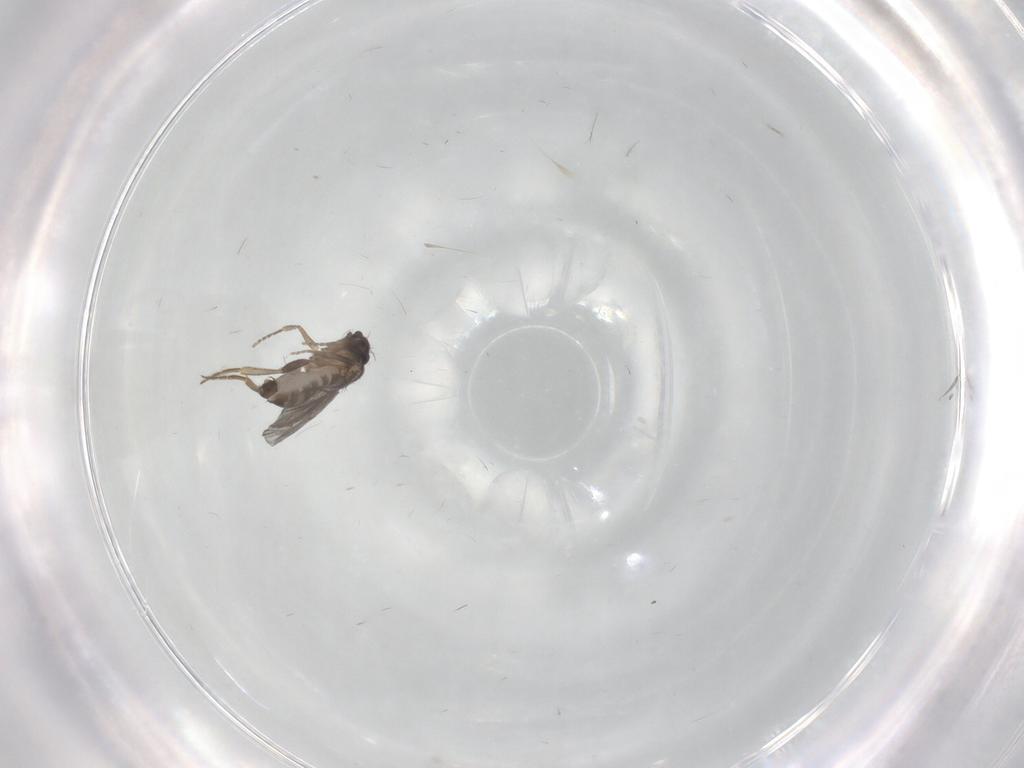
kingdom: Animalia
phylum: Arthropoda
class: Insecta
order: Diptera
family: Cecidomyiidae
